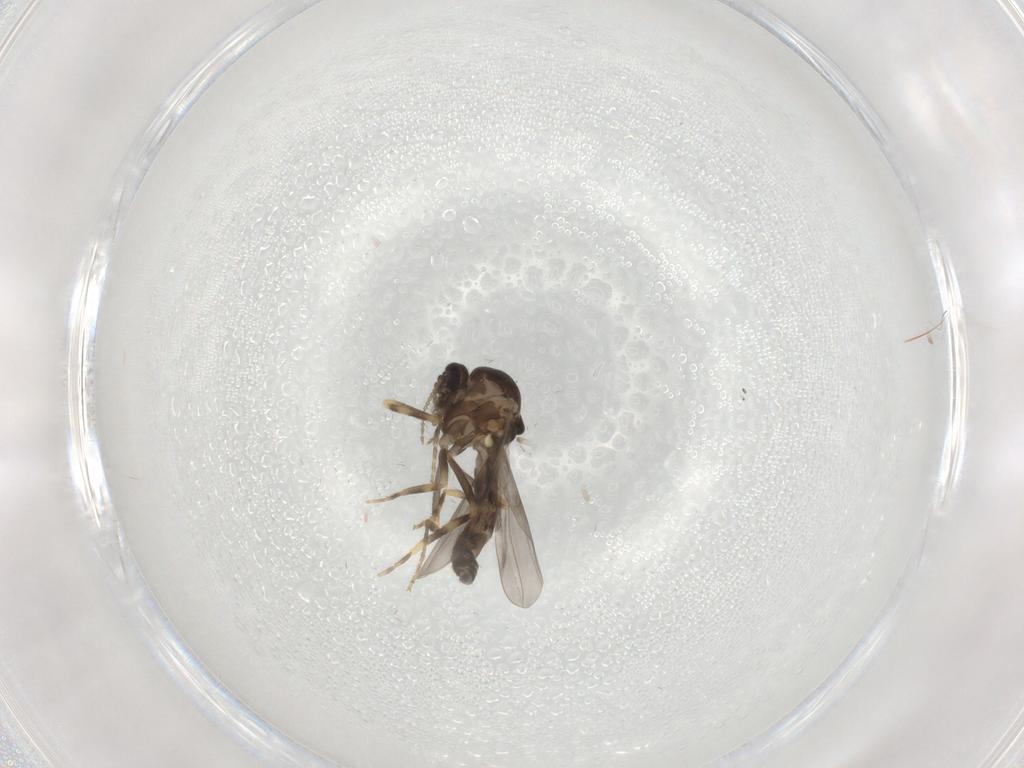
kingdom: Animalia
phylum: Arthropoda
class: Insecta
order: Diptera
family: Ceratopogonidae
